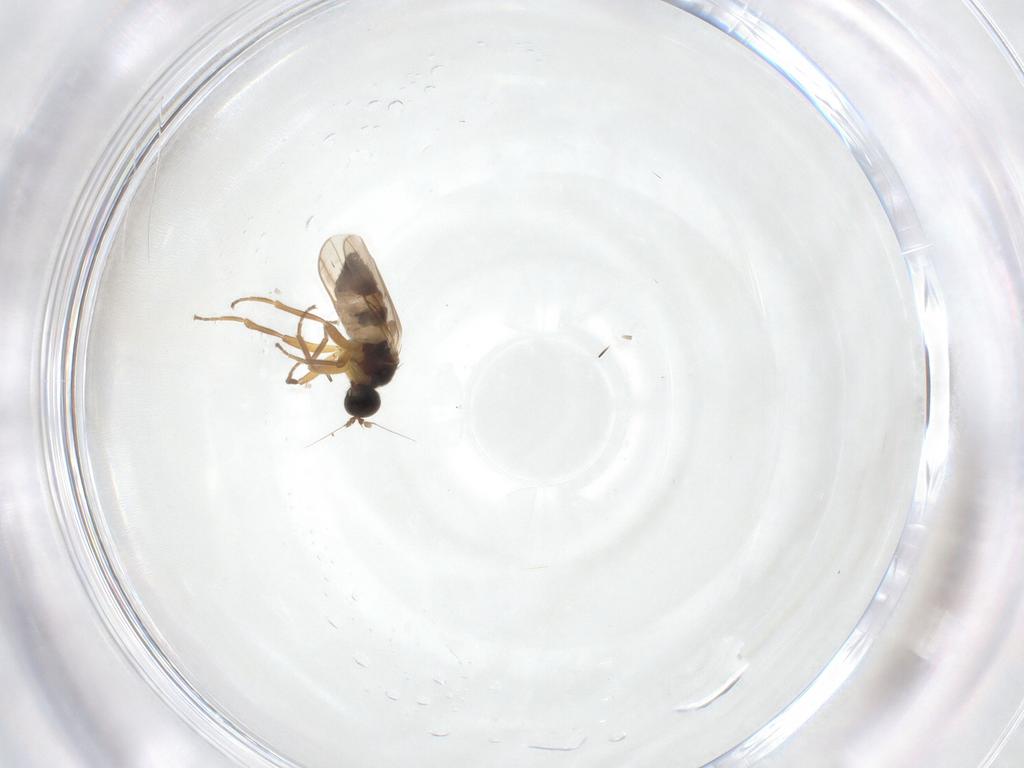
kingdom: Animalia
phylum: Arthropoda
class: Insecta
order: Diptera
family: Hybotidae
